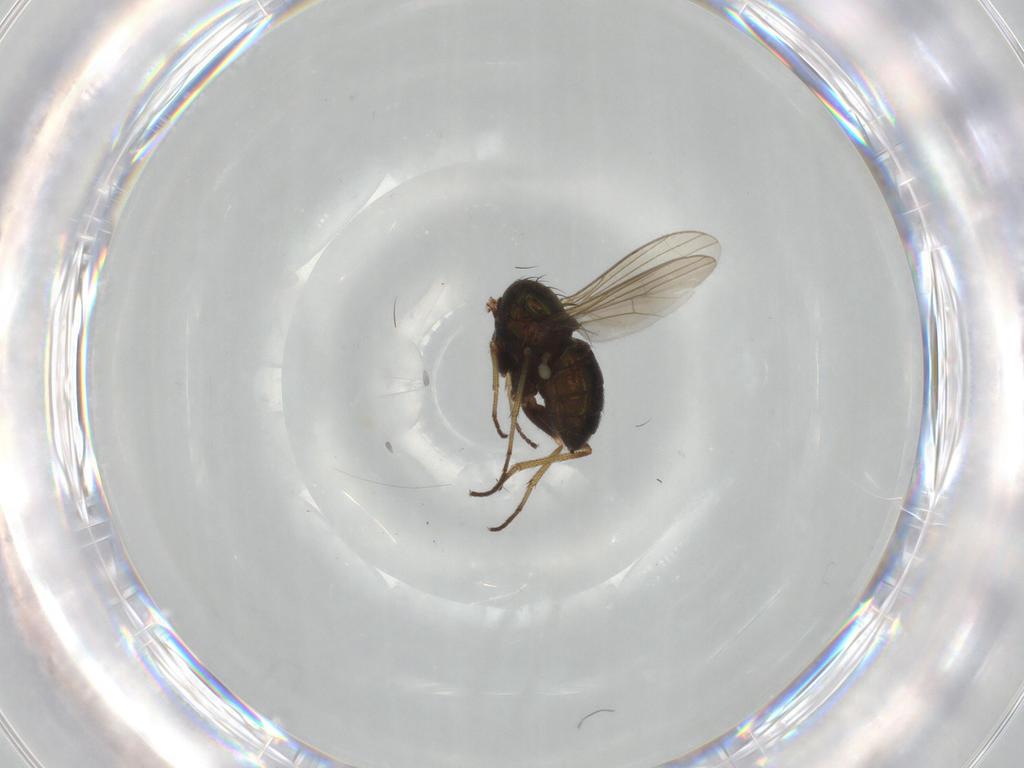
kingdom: Animalia
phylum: Arthropoda
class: Insecta
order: Diptera
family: Dolichopodidae
